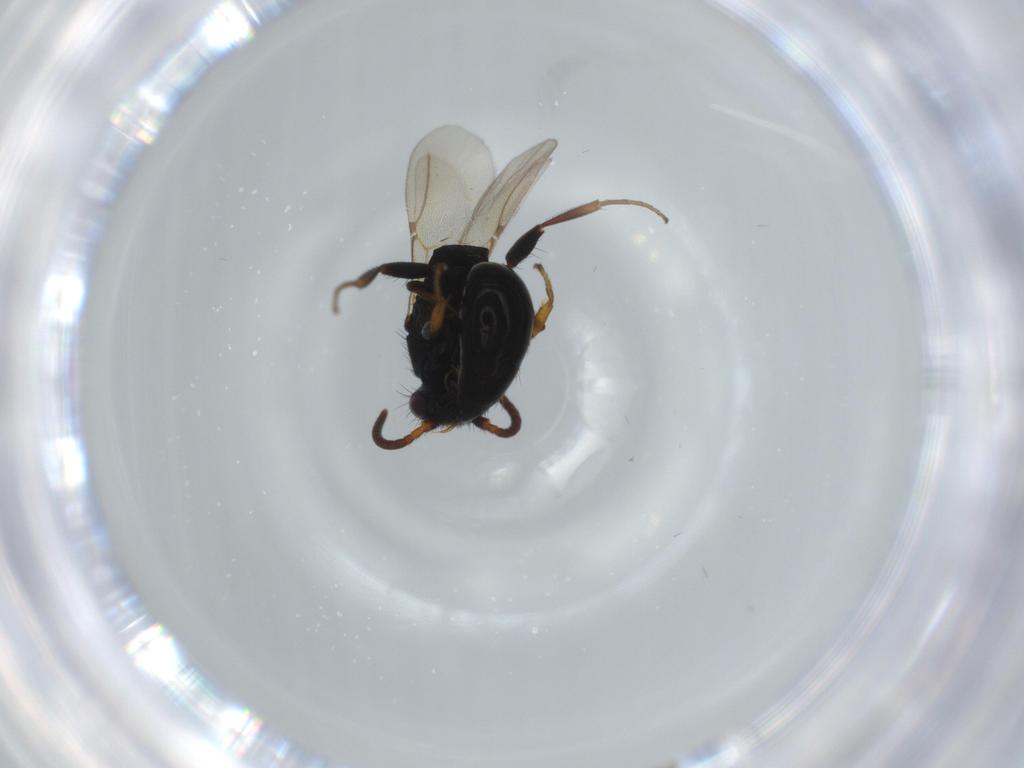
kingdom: Animalia
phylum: Arthropoda
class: Insecta
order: Hymenoptera
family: Bethylidae
